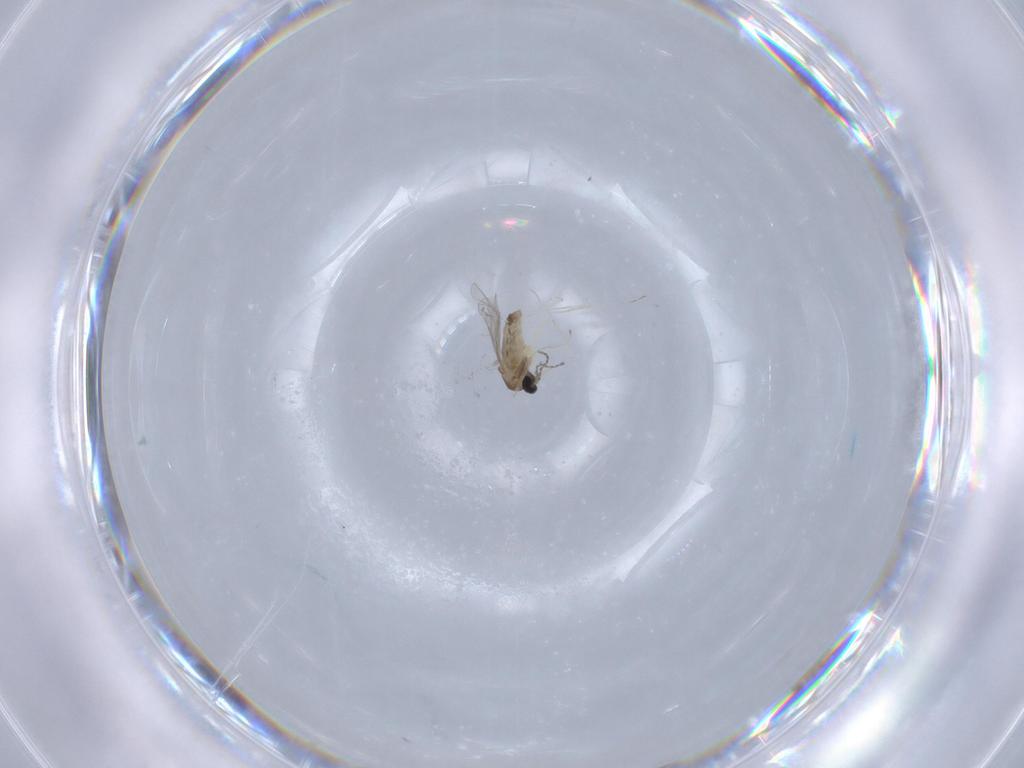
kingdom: Animalia
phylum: Arthropoda
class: Insecta
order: Diptera
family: Cecidomyiidae
